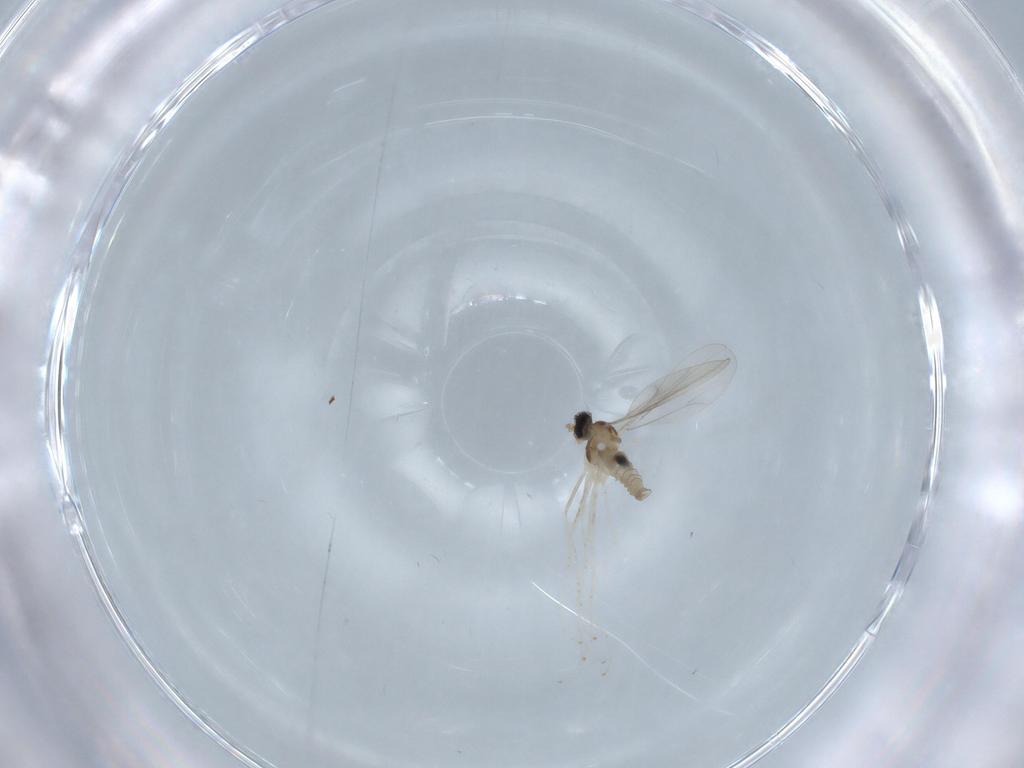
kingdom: Animalia
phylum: Arthropoda
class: Insecta
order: Diptera
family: Cecidomyiidae
